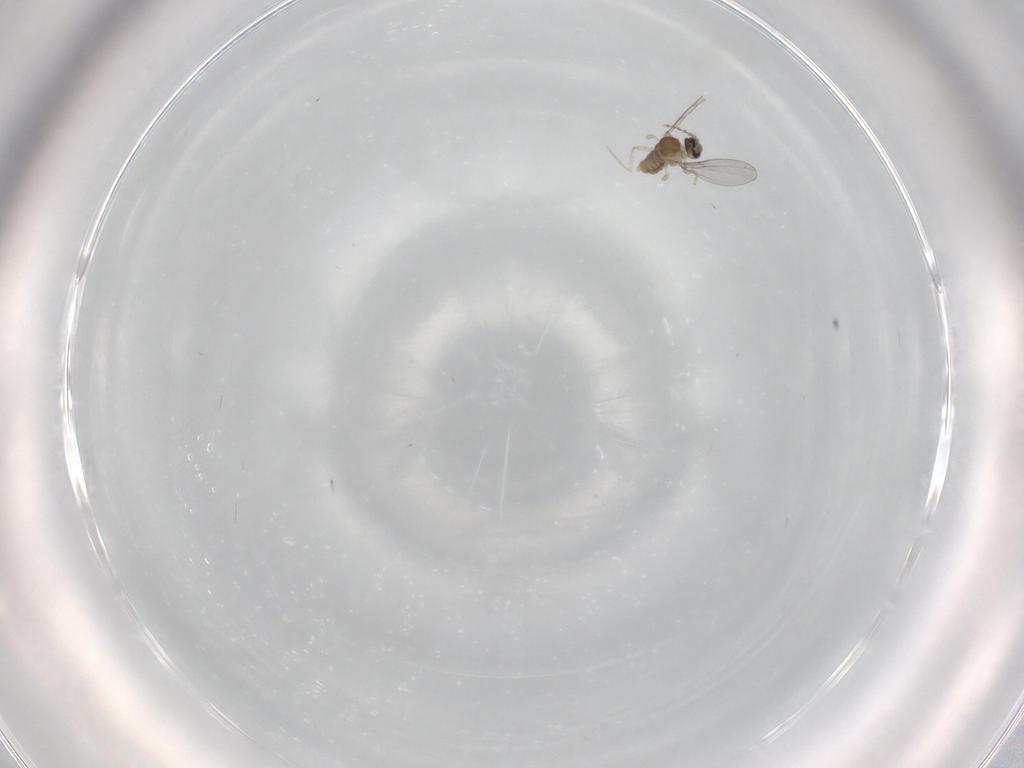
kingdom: Animalia
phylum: Arthropoda
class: Insecta
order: Diptera
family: Cecidomyiidae
